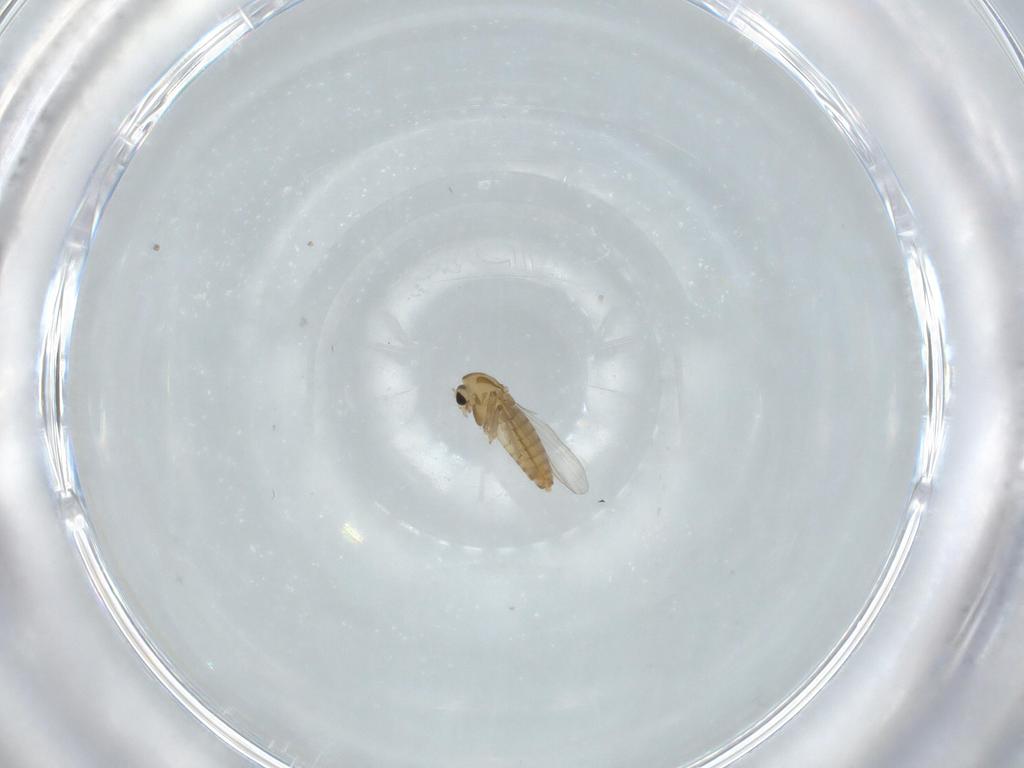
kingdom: Animalia
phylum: Arthropoda
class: Insecta
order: Diptera
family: Chironomidae
